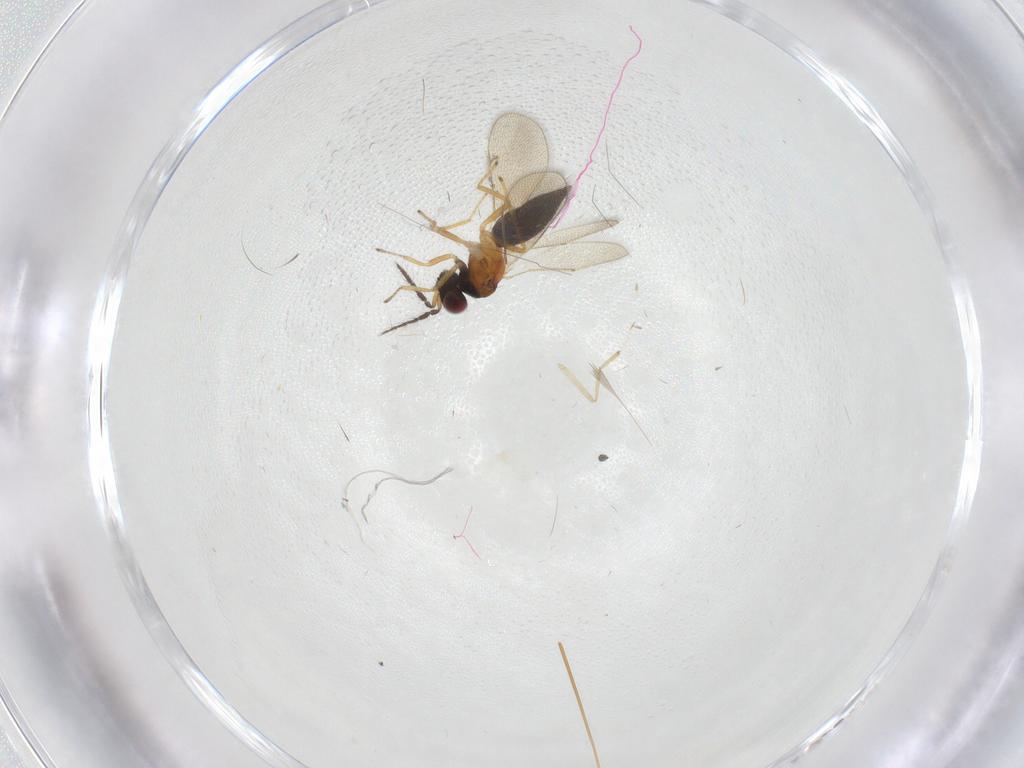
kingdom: Animalia
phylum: Arthropoda
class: Insecta
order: Hymenoptera
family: Eulophidae
